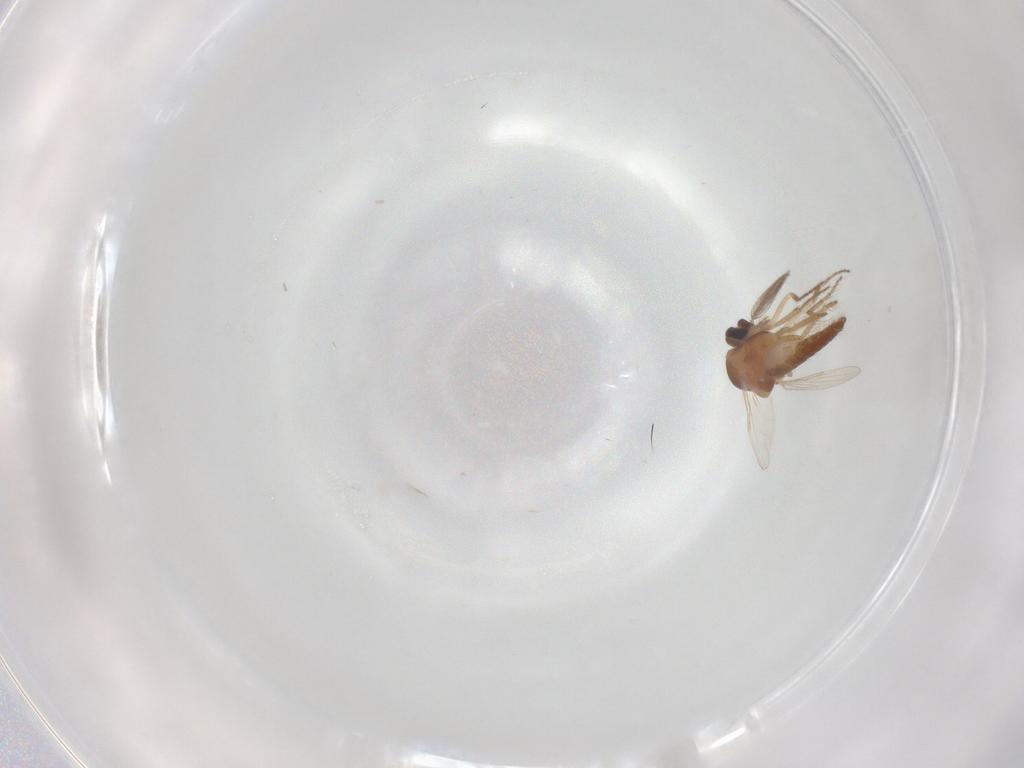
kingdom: Animalia
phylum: Arthropoda
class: Insecta
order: Diptera
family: Ceratopogonidae
